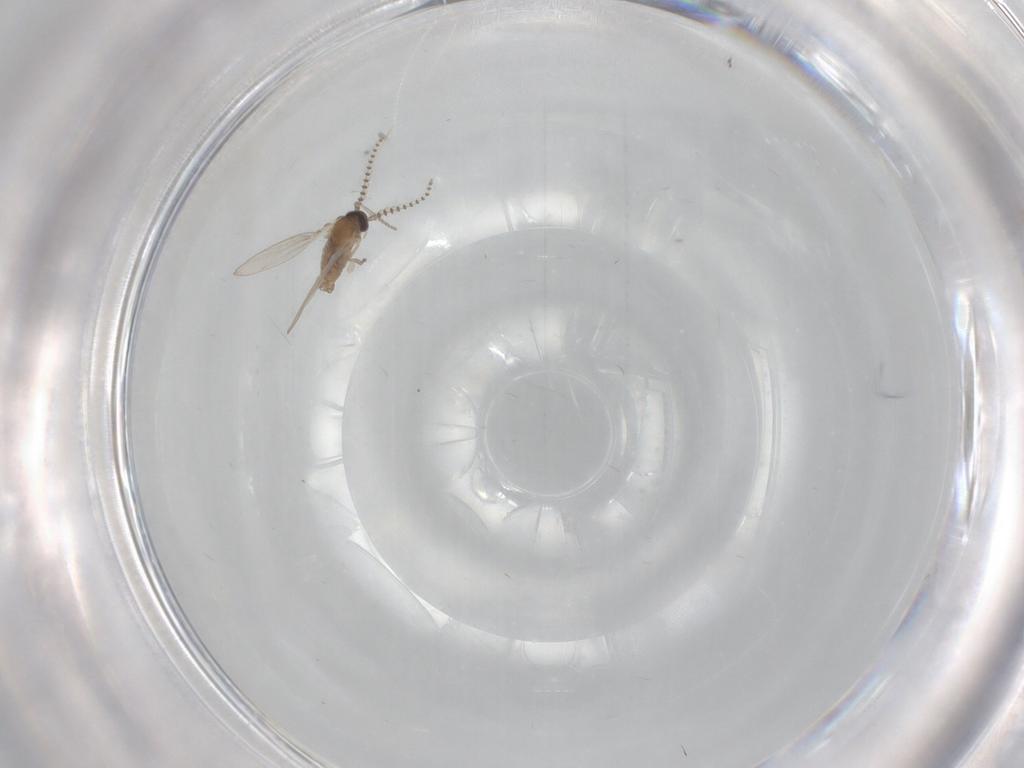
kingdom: Animalia
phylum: Arthropoda
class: Insecta
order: Diptera
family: Psychodidae
